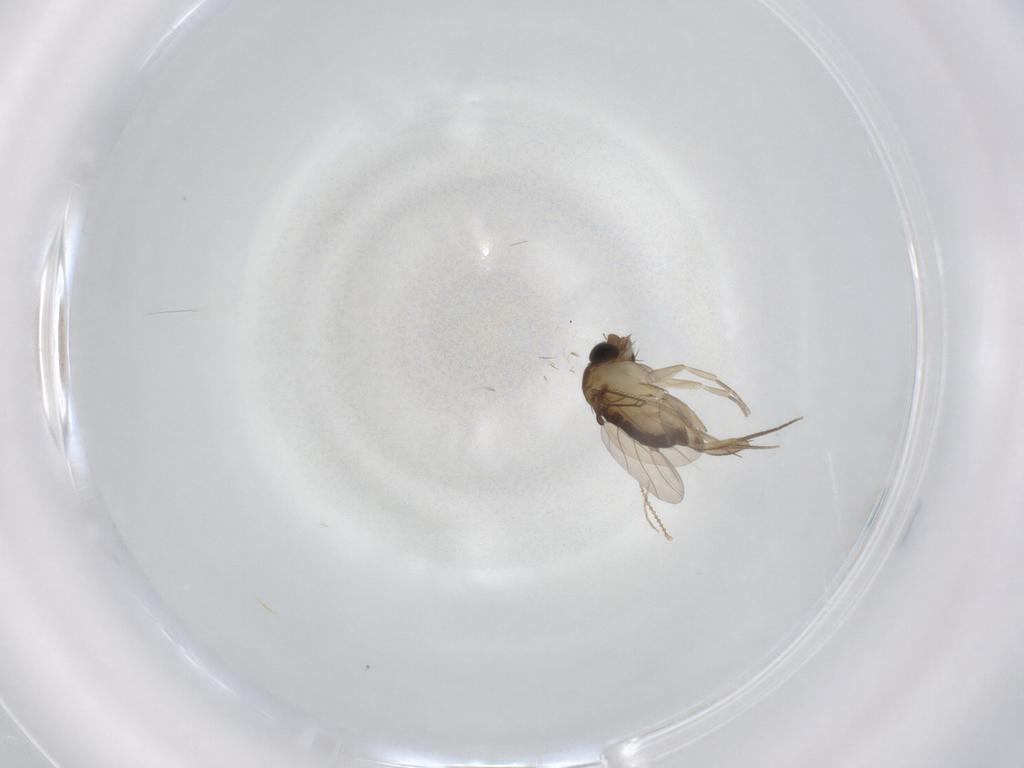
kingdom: Animalia
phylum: Arthropoda
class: Insecta
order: Diptera
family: Phoridae
